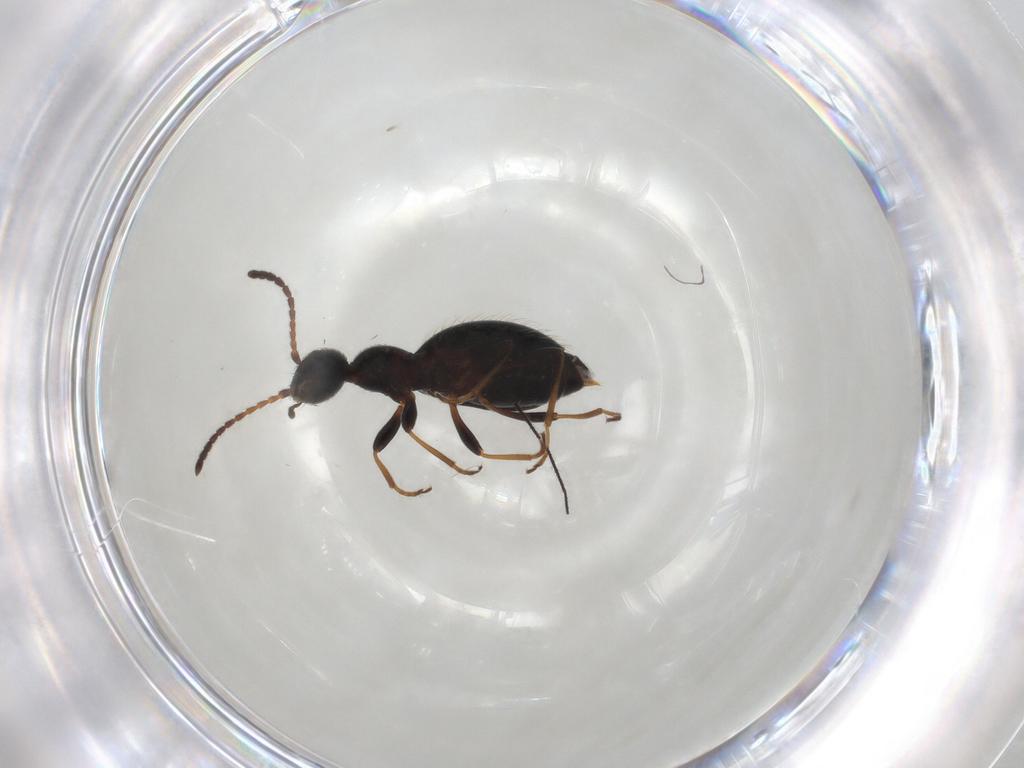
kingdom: Animalia
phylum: Arthropoda
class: Insecta
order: Coleoptera
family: Anthicidae
